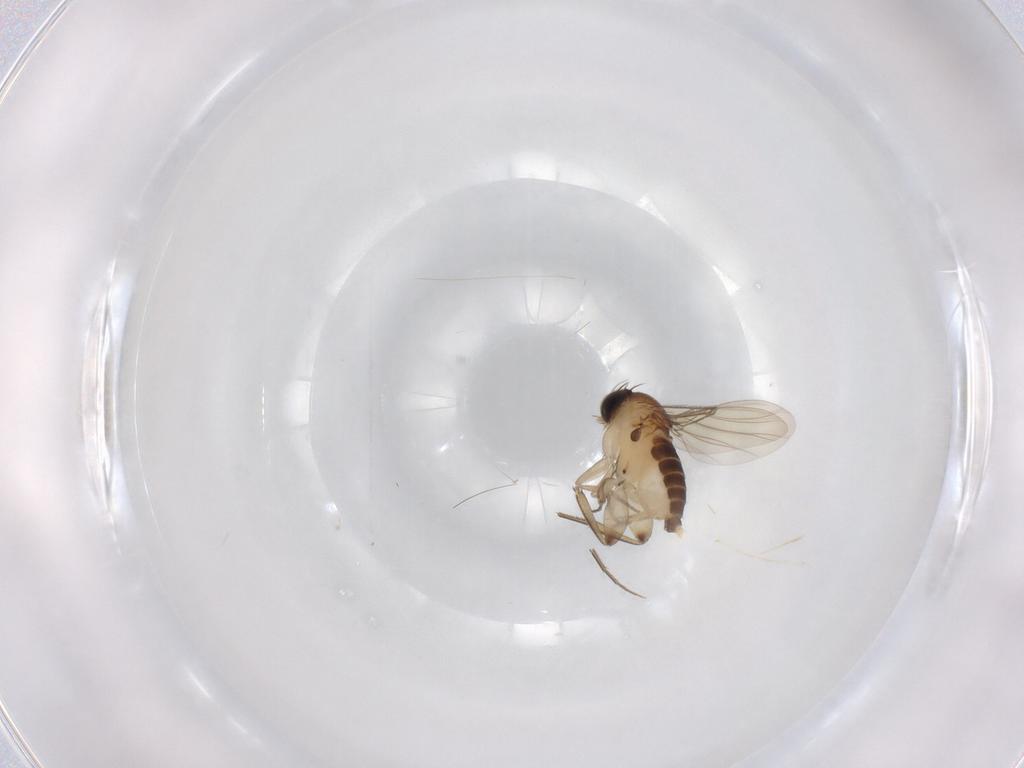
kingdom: Animalia
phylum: Arthropoda
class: Insecta
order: Diptera
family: Phoridae
